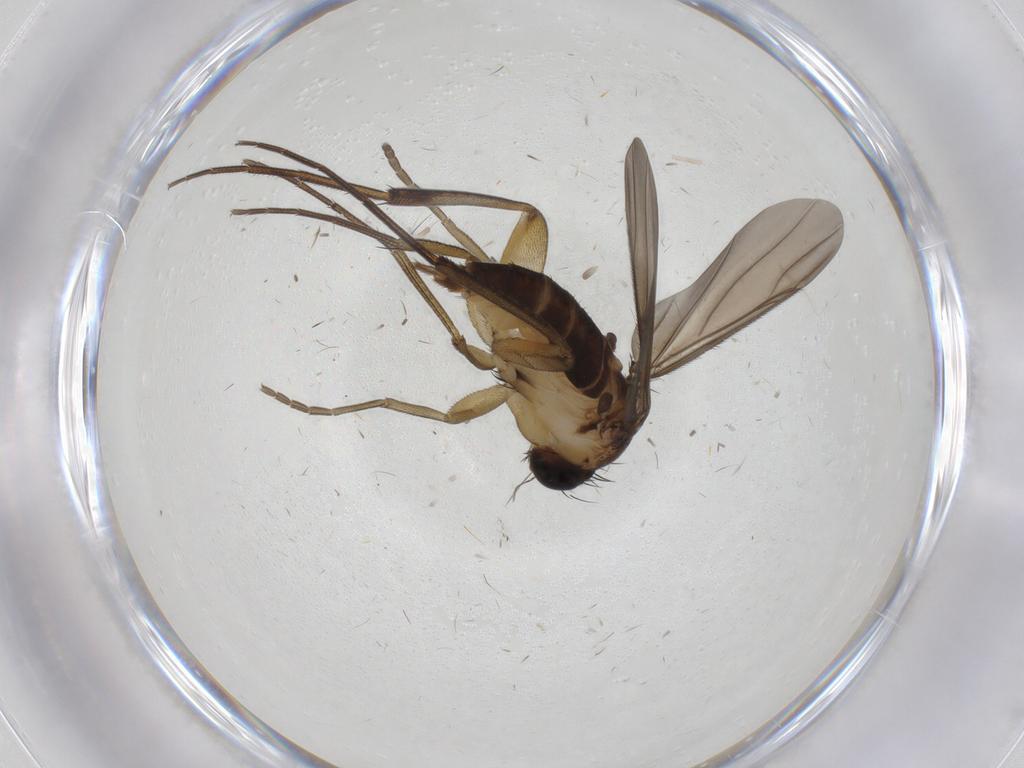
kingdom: Animalia
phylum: Arthropoda
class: Insecta
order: Diptera
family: Phoridae
